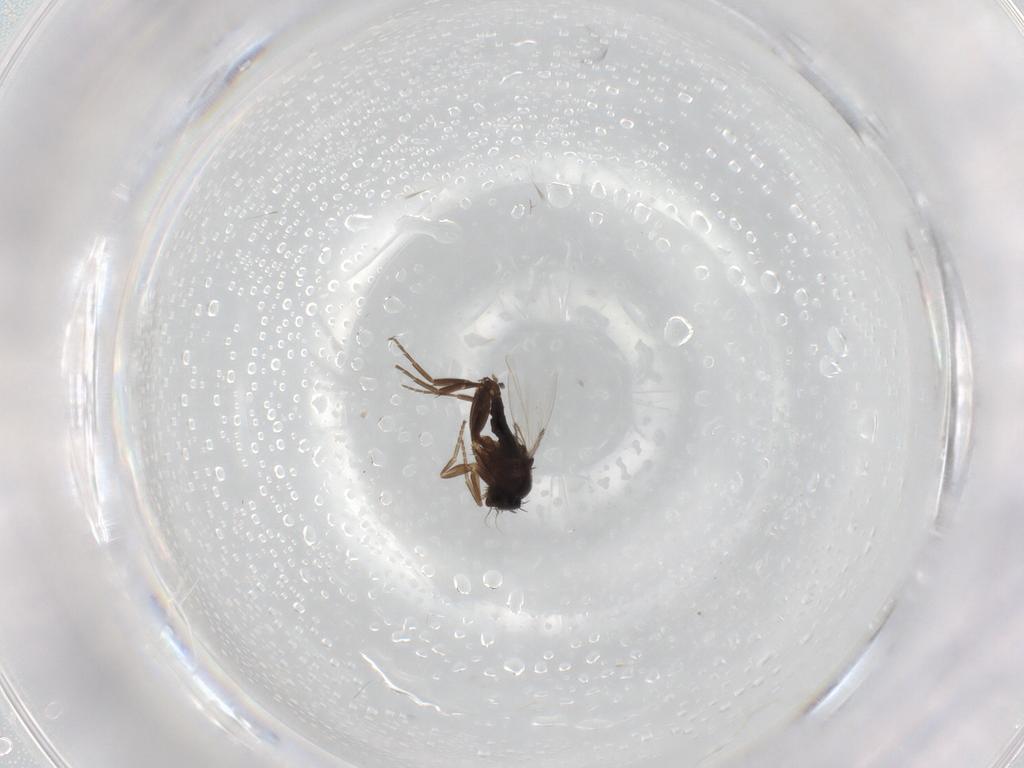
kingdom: Animalia
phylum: Arthropoda
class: Insecta
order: Diptera
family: Phoridae
